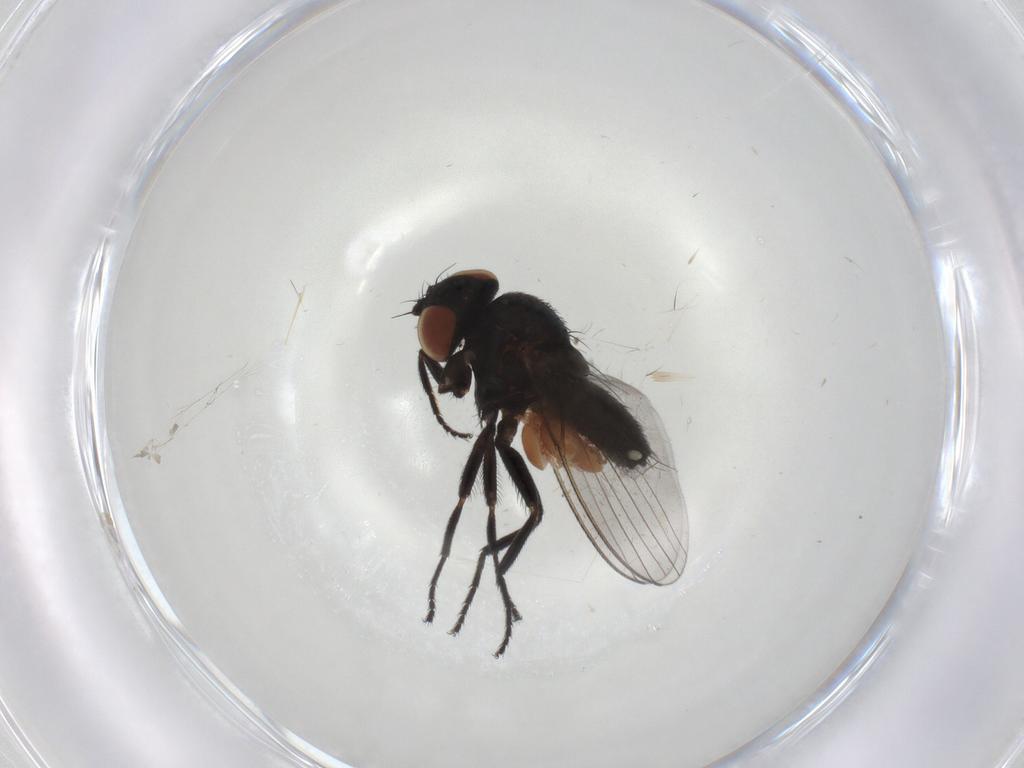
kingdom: Animalia
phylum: Arthropoda
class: Insecta
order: Diptera
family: Milichiidae
